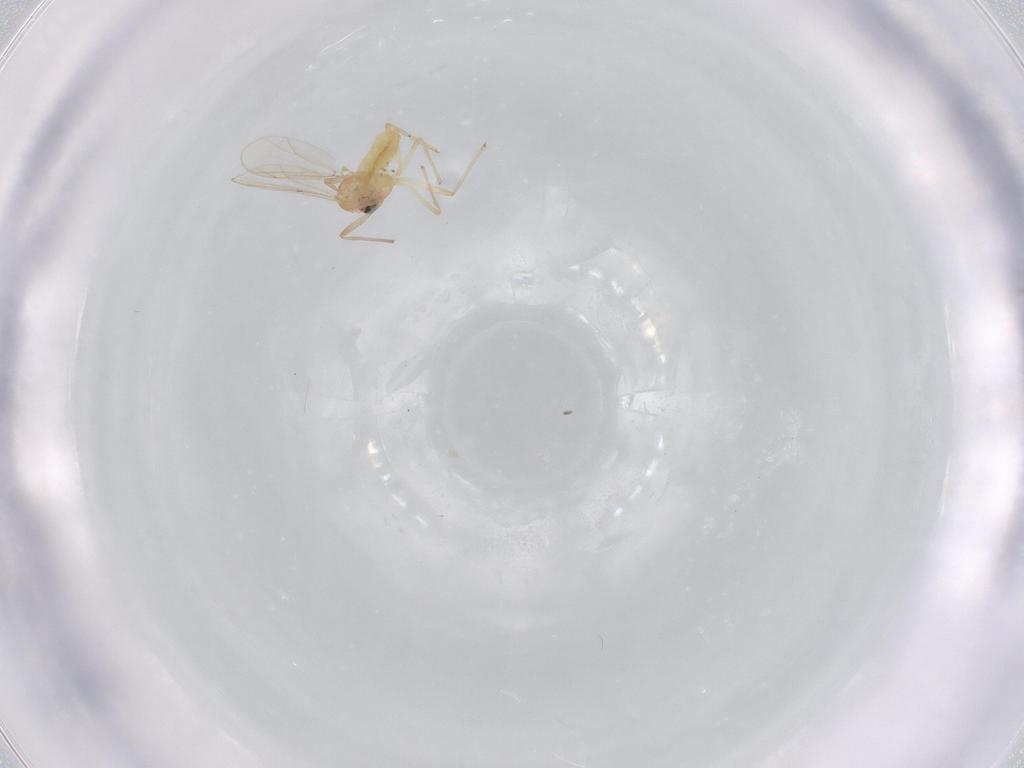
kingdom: Animalia
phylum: Arthropoda
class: Insecta
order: Diptera
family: Chironomidae
